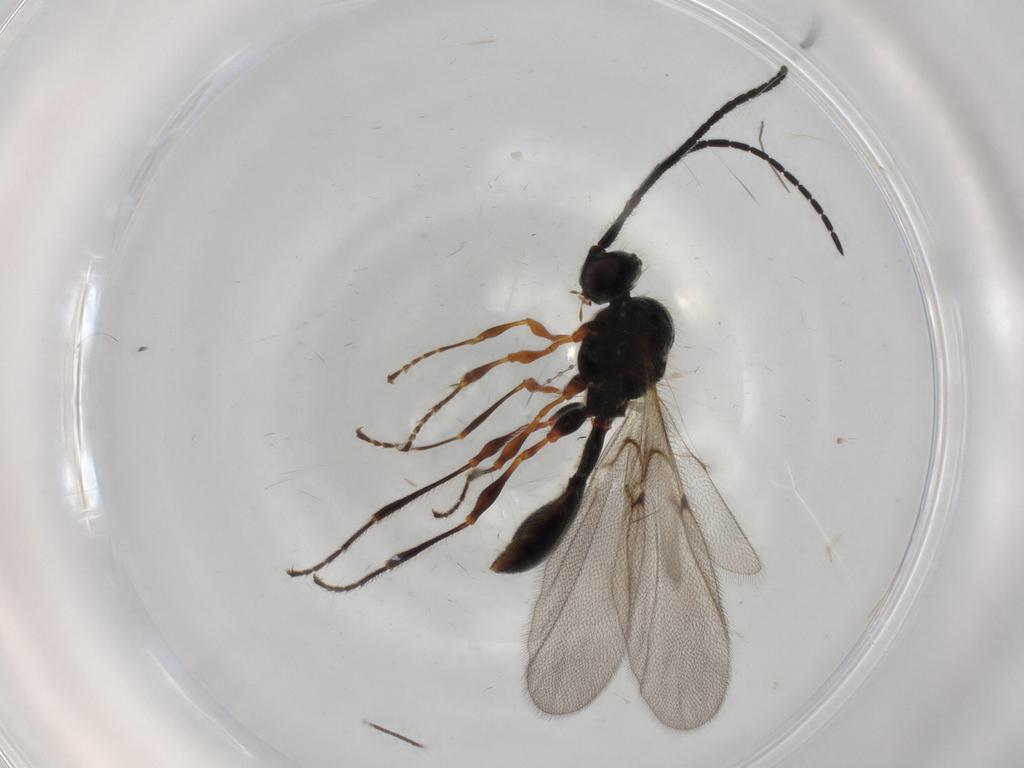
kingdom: Animalia
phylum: Arthropoda
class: Insecta
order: Hymenoptera
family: Diapriidae
